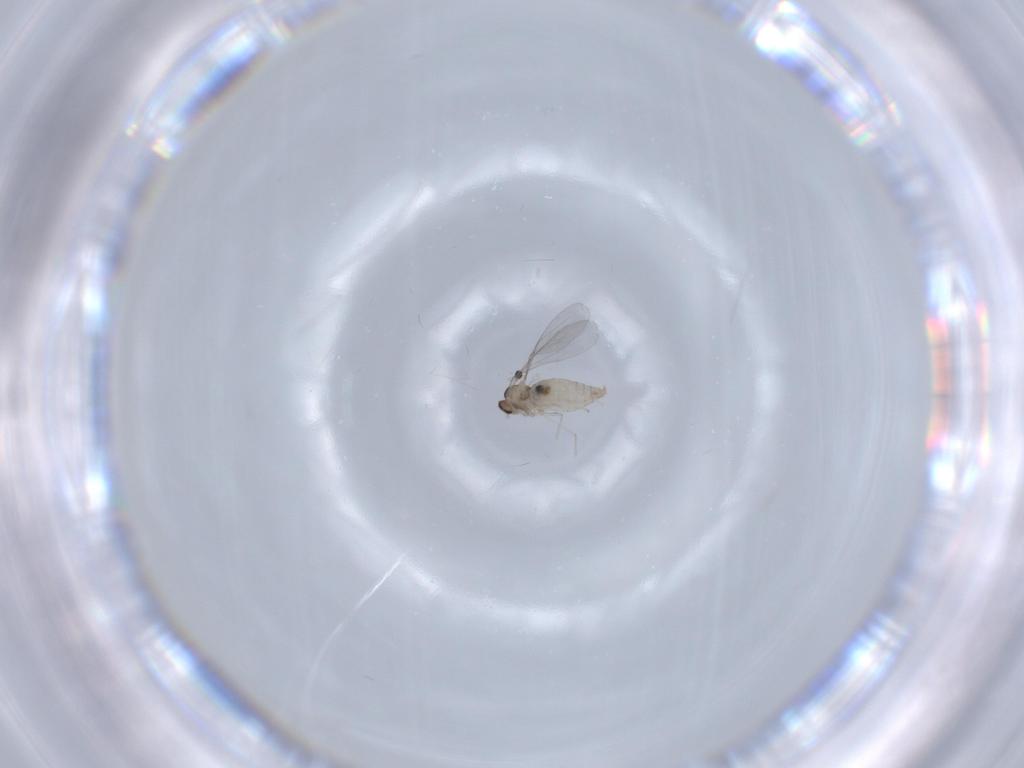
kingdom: Animalia
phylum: Arthropoda
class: Insecta
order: Diptera
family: Cecidomyiidae
